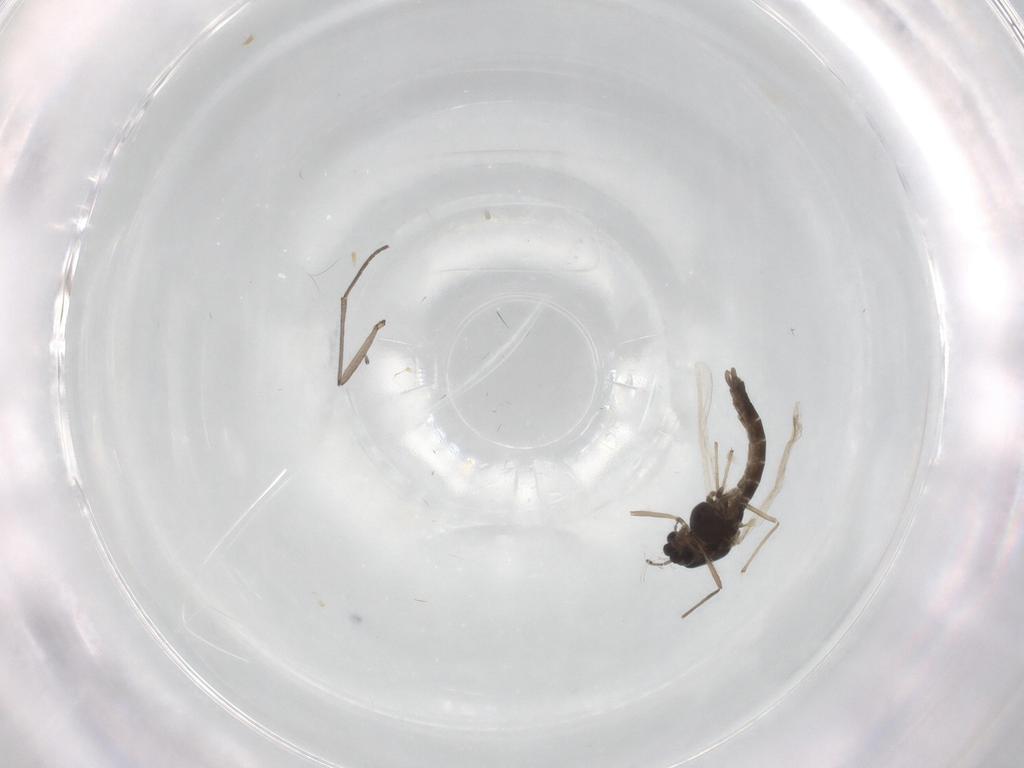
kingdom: Animalia
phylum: Arthropoda
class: Insecta
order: Diptera
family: Chironomidae
